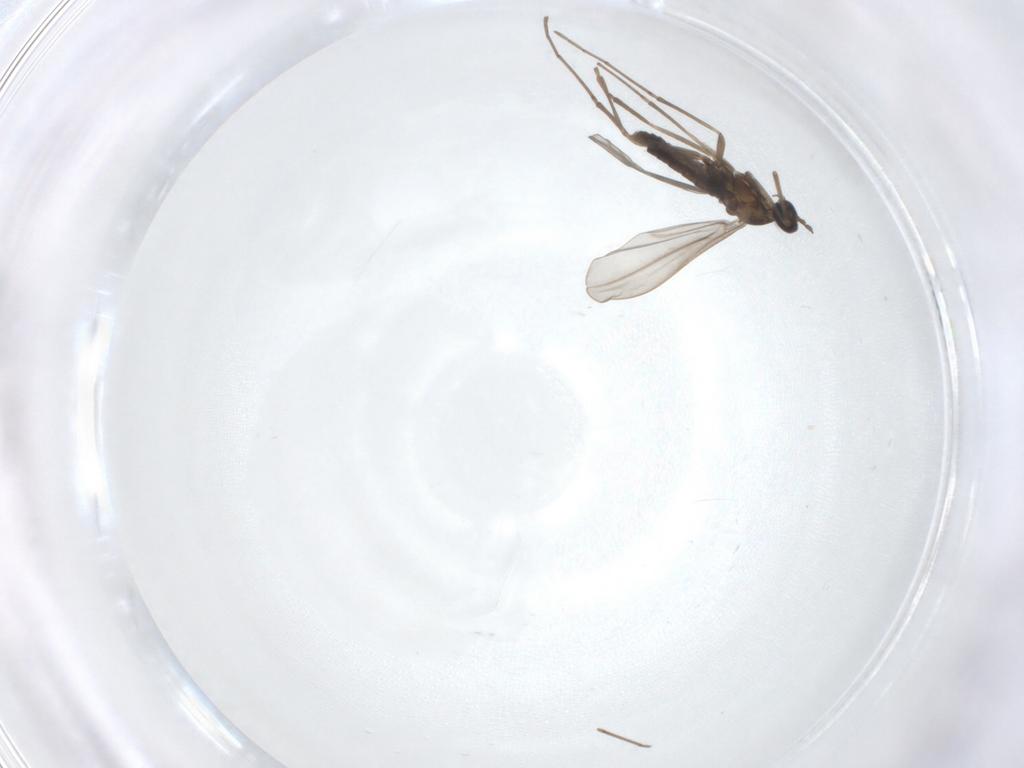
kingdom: Animalia
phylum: Arthropoda
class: Insecta
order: Diptera
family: Cecidomyiidae
